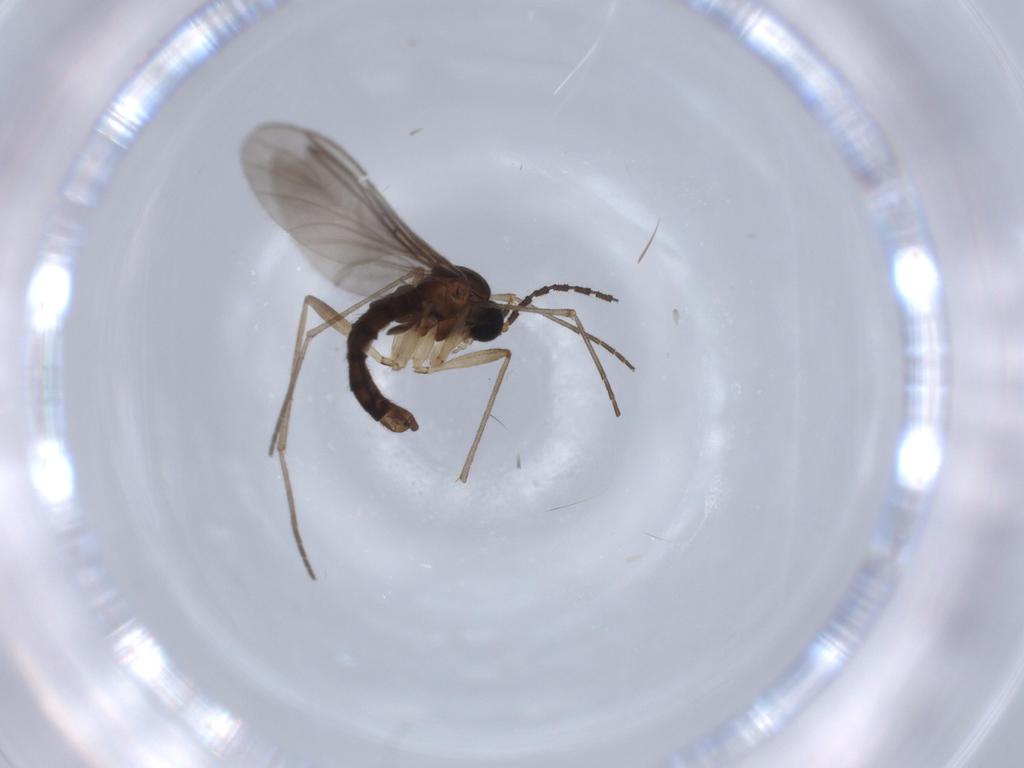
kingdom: Animalia
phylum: Arthropoda
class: Insecta
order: Diptera
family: Sciaridae
